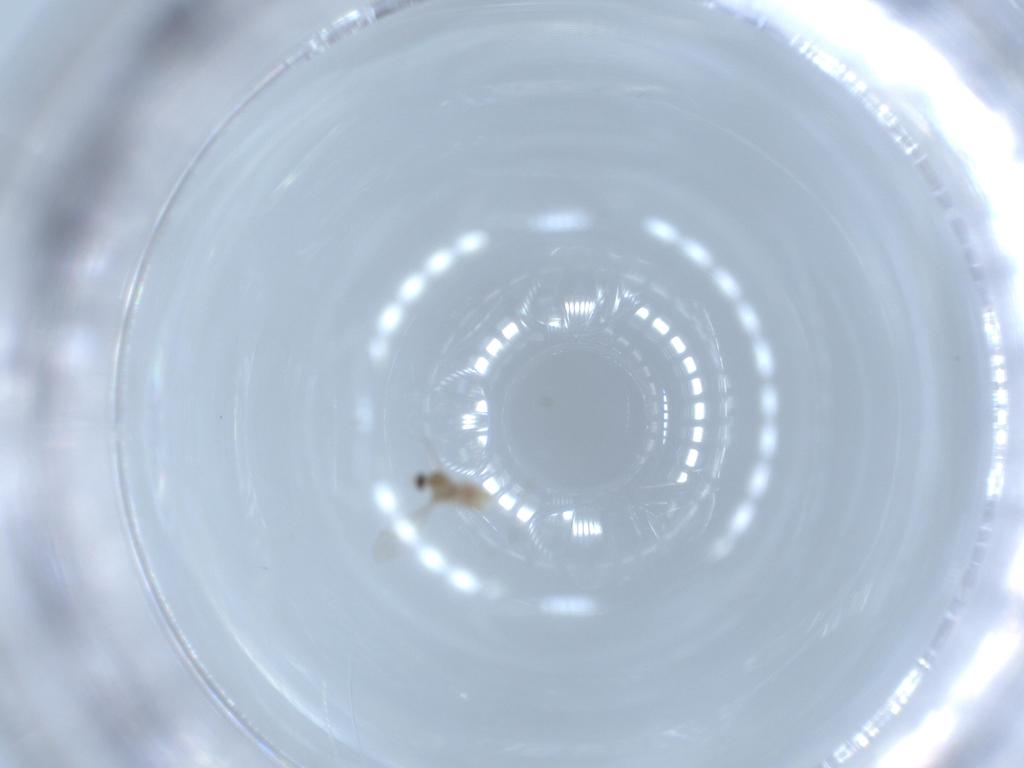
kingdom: Animalia
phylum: Arthropoda
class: Insecta
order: Diptera
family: Cecidomyiidae
